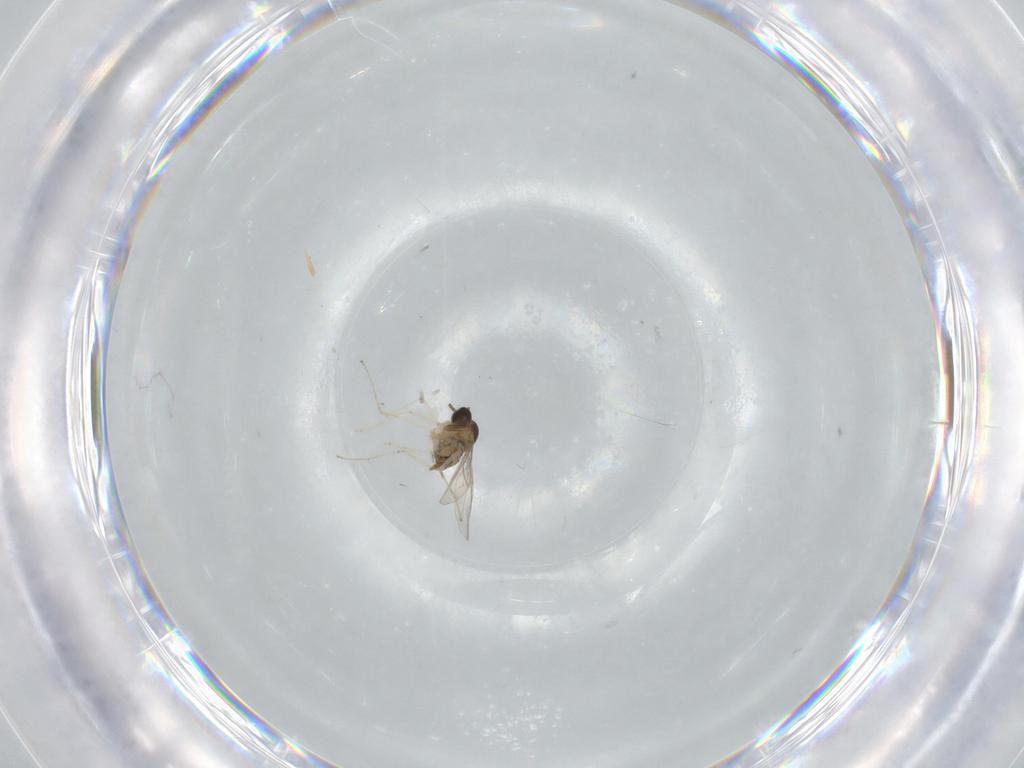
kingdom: Animalia
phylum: Arthropoda
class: Insecta
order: Diptera
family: Cecidomyiidae
